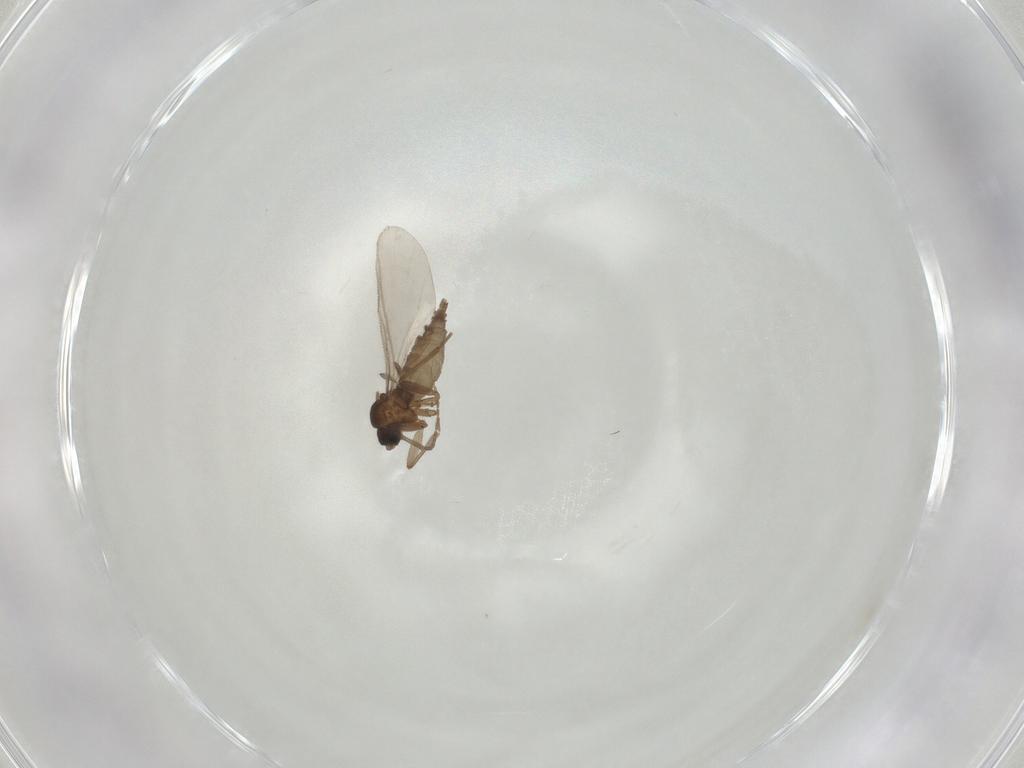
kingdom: Animalia
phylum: Arthropoda
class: Insecta
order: Diptera
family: Sciaridae
